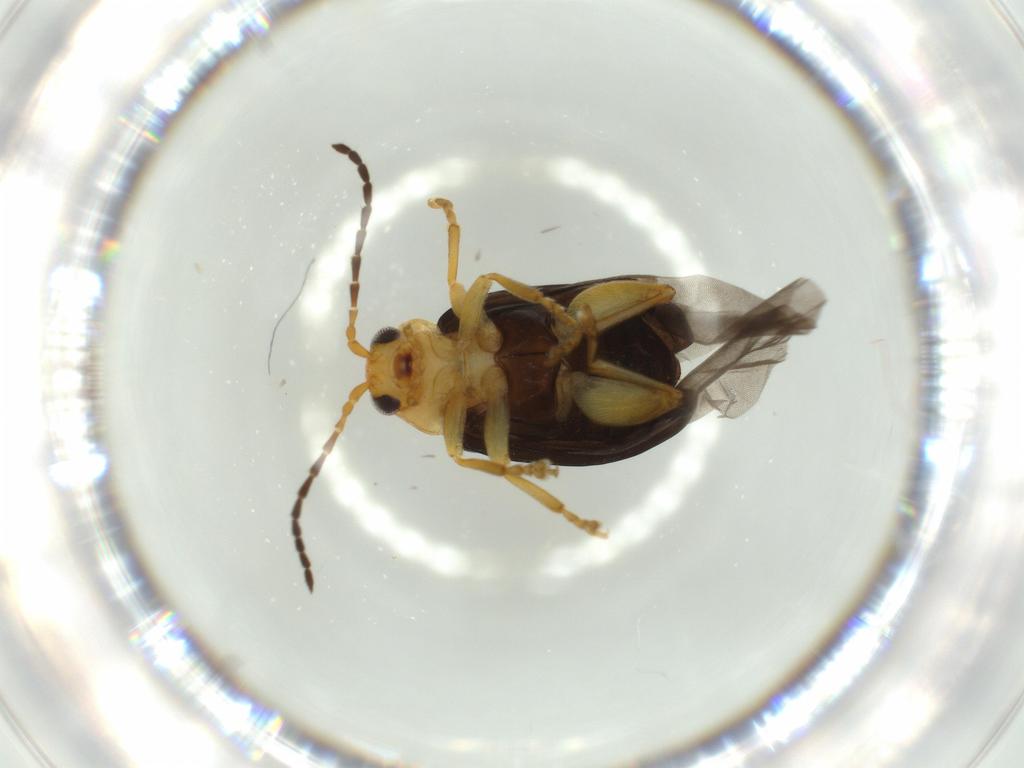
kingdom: Animalia
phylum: Arthropoda
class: Insecta
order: Coleoptera
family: Chrysomelidae
